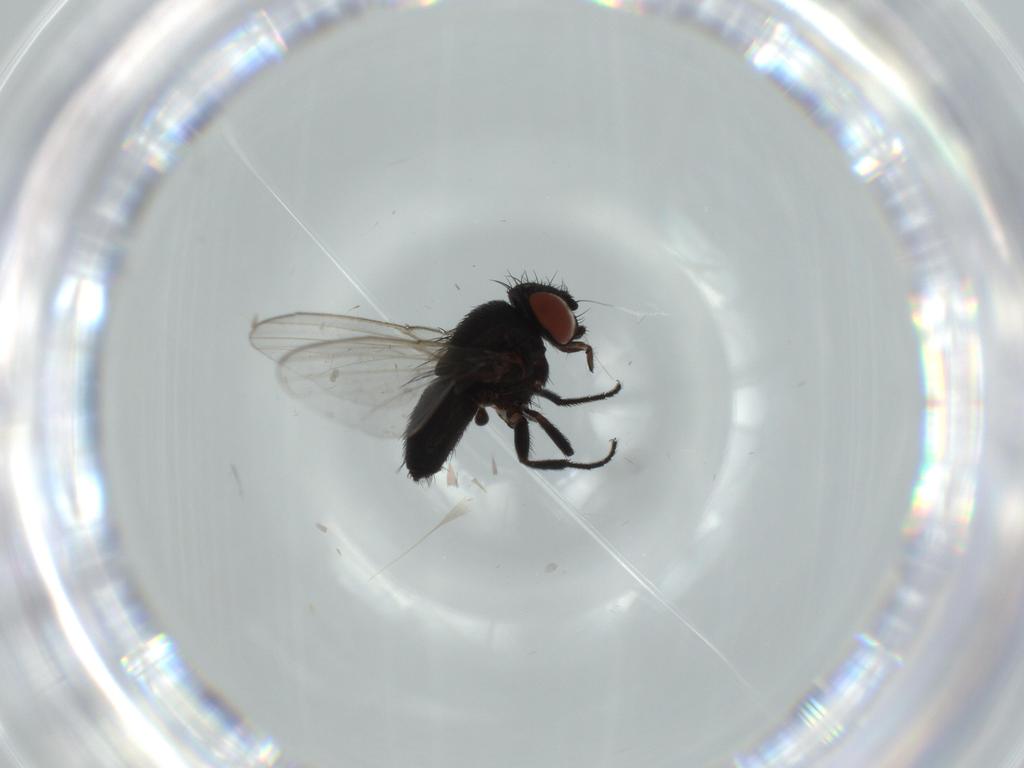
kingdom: Animalia
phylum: Arthropoda
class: Insecta
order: Diptera
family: Milichiidae
